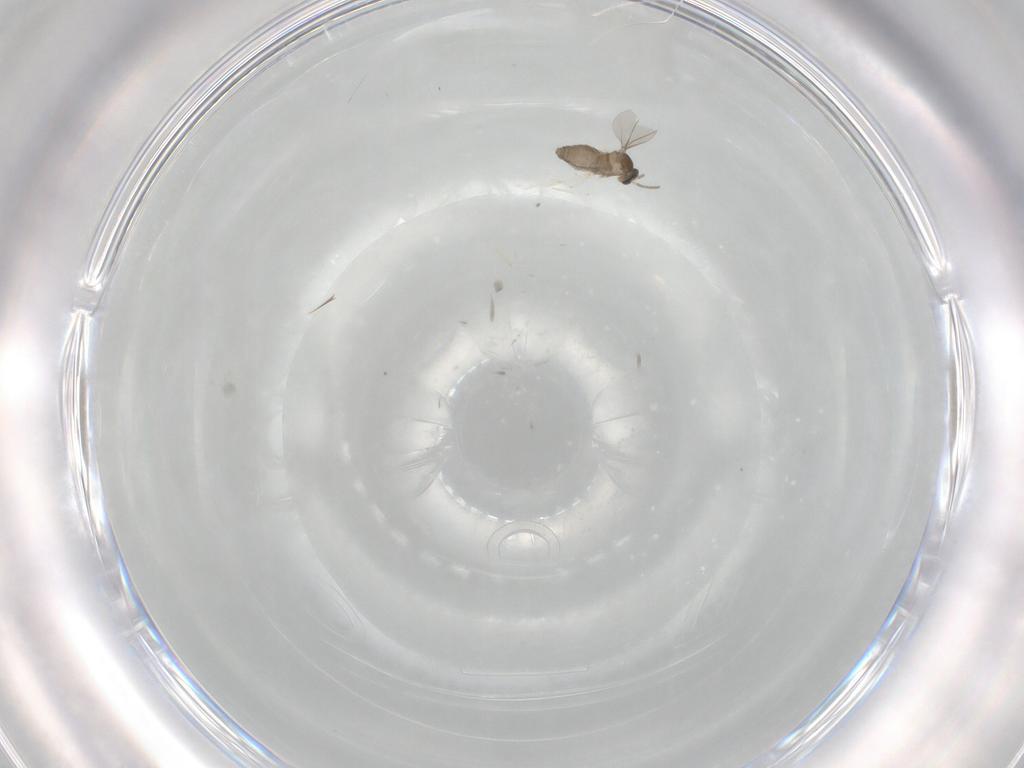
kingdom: Animalia
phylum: Arthropoda
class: Insecta
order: Diptera
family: Cecidomyiidae
